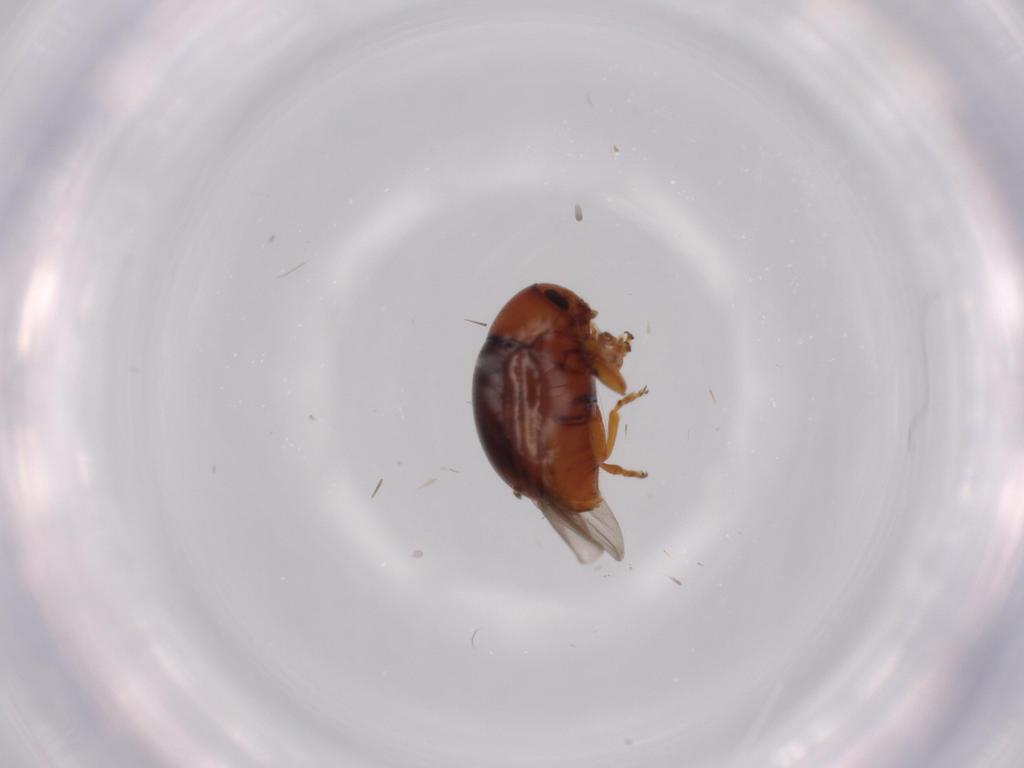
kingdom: Animalia
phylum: Arthropoda
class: Insecta
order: Coleoptera
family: Chrysomelidae
